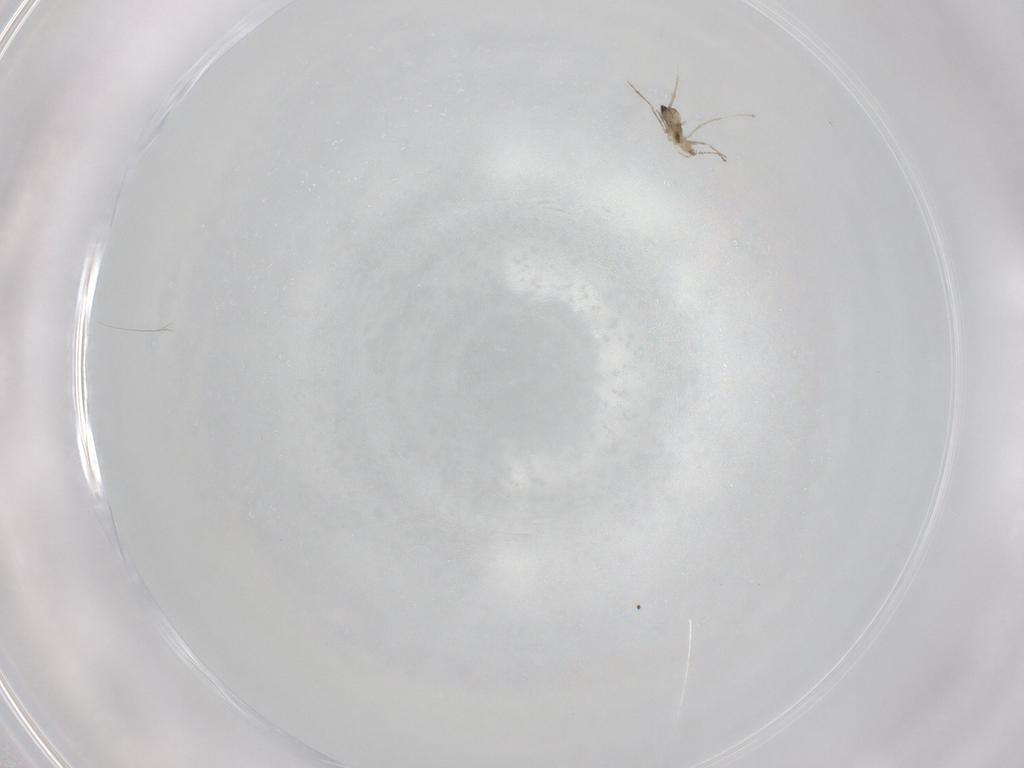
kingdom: Animalia
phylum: Arthropoda
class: Insecta
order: Diptera
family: Cecidomyiidae
